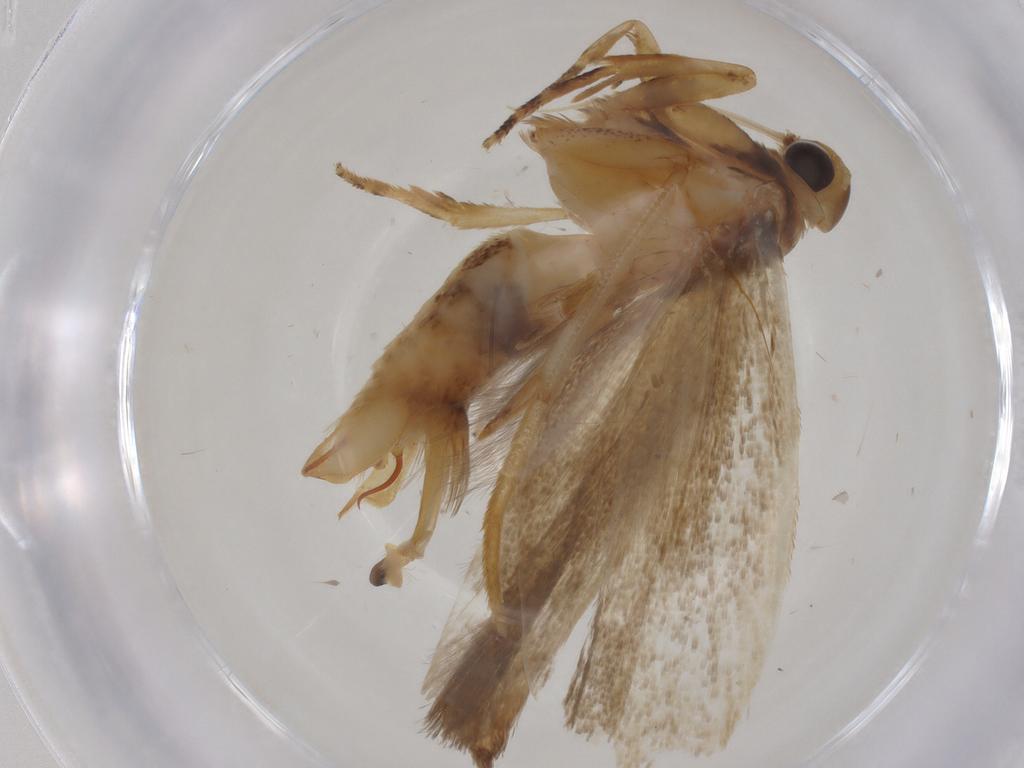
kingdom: Animalia
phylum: Arthropoda
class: Insecta
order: Lepidoptera
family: Gelechiidae
